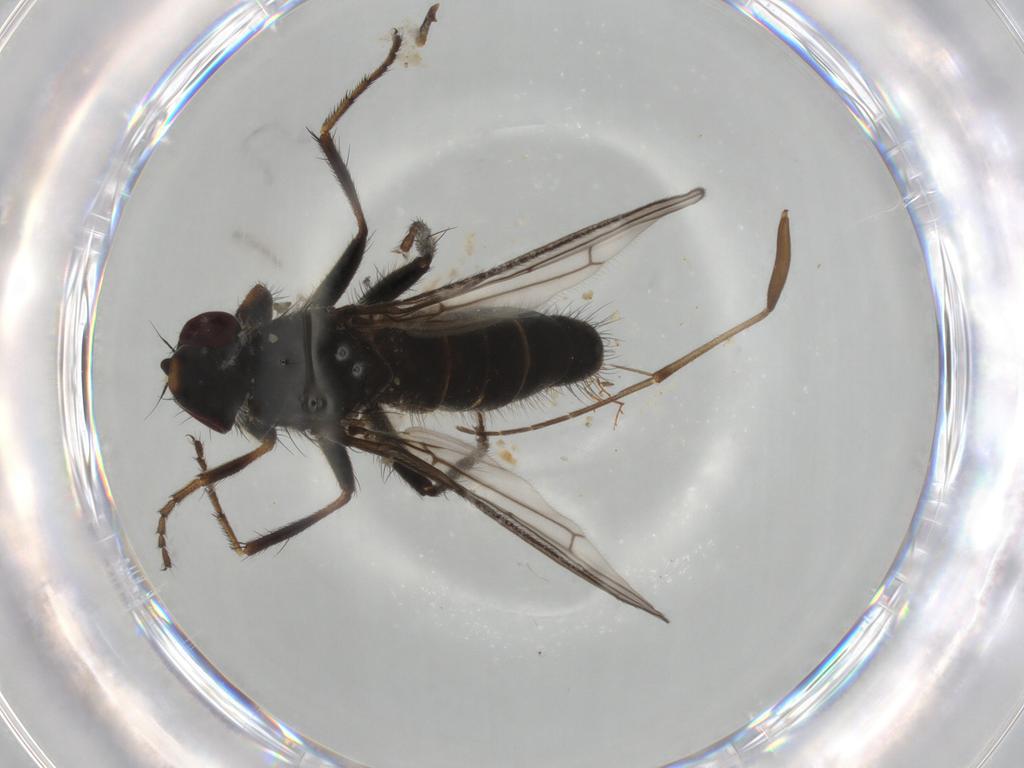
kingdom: Animalia
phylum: Arthropoda
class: Insecta
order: Diptera
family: Scathophagidae
